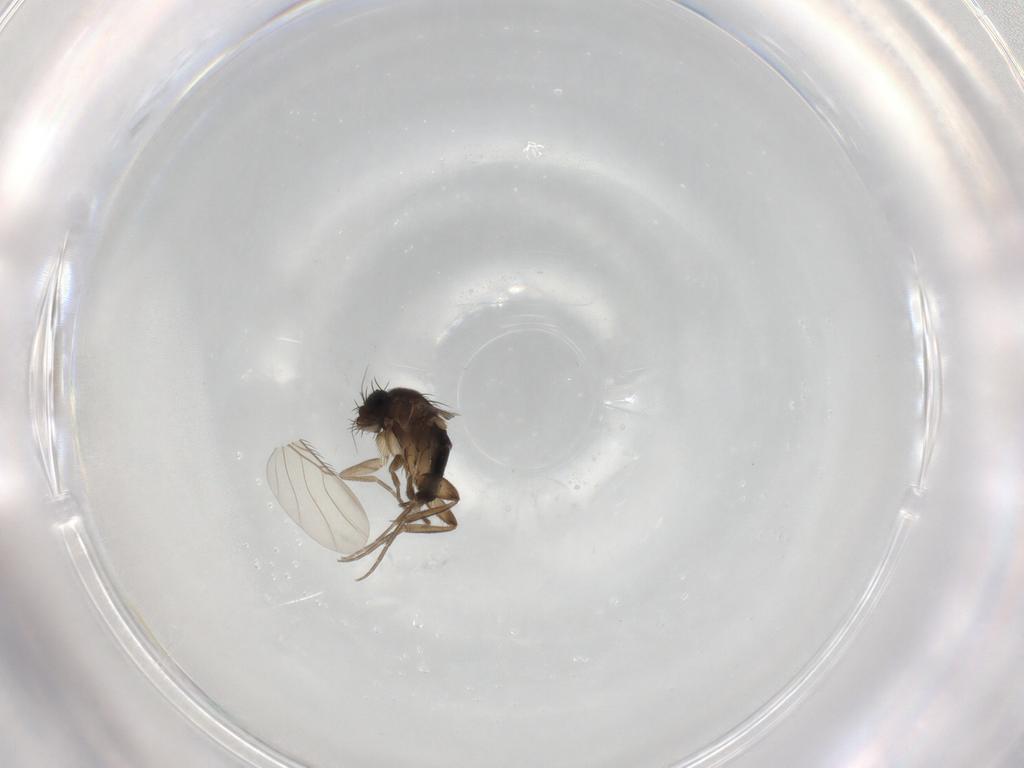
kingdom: Animalia
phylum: Arthropoda
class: Insecta
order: Diptera
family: Phoridae
